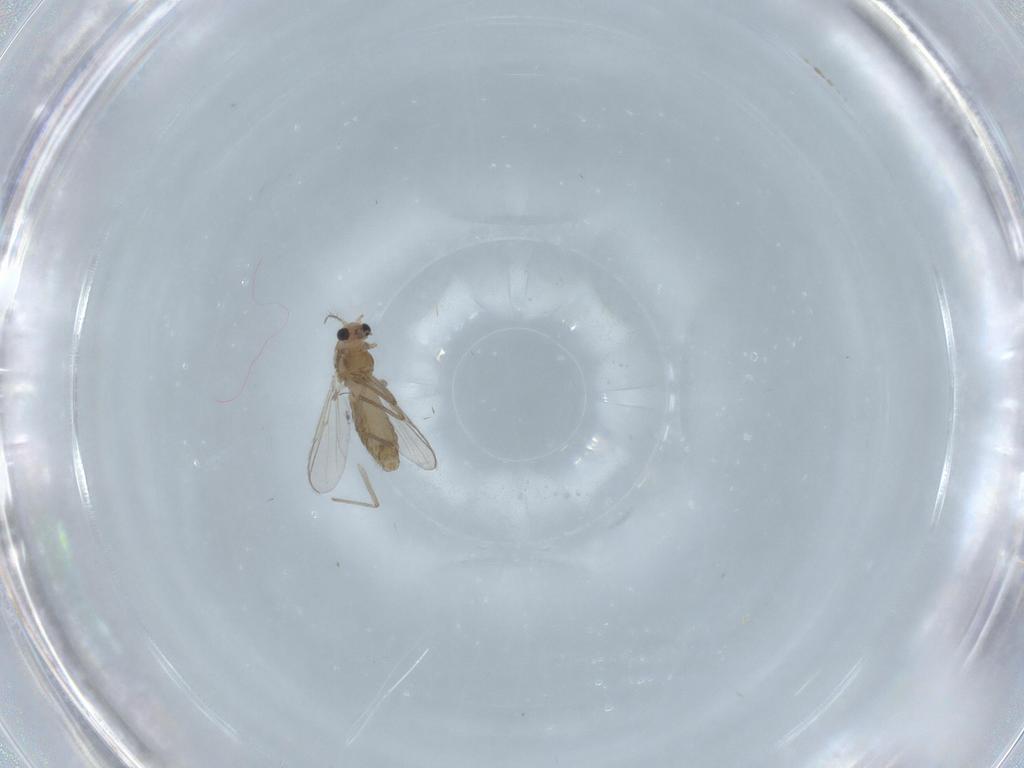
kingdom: Animalia
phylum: Arthropoda
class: Insecta
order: Diptera
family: Chironomidae
